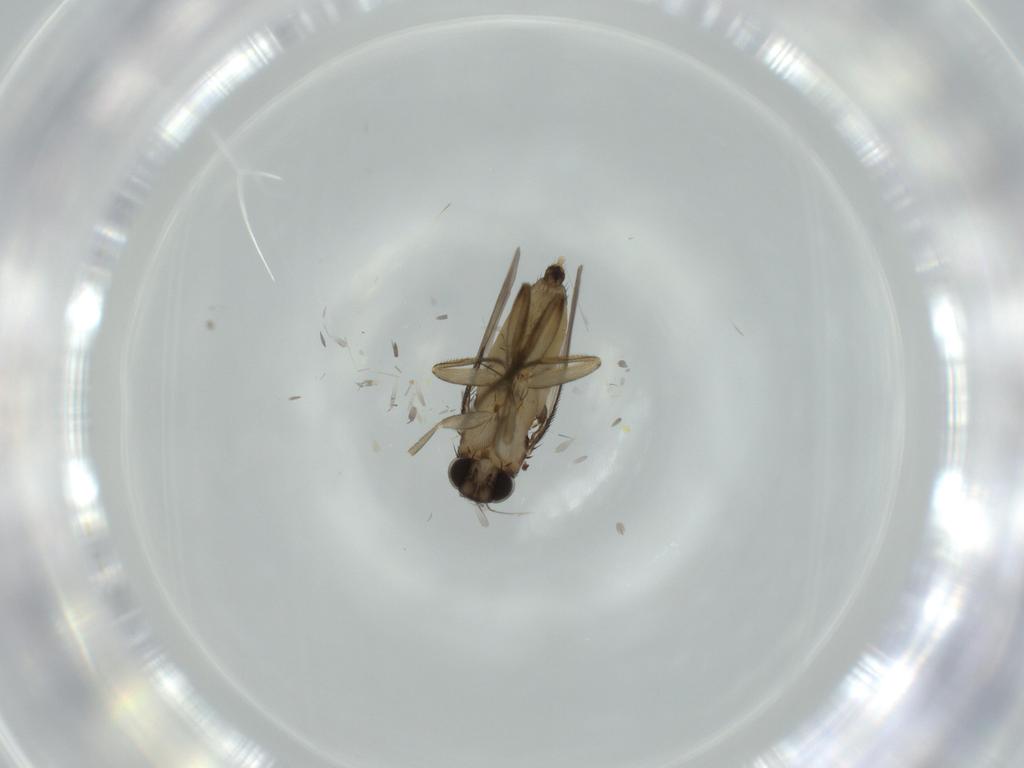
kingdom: Animalia
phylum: Arthropoda
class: Insecta
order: Diptera
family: Phoridae
